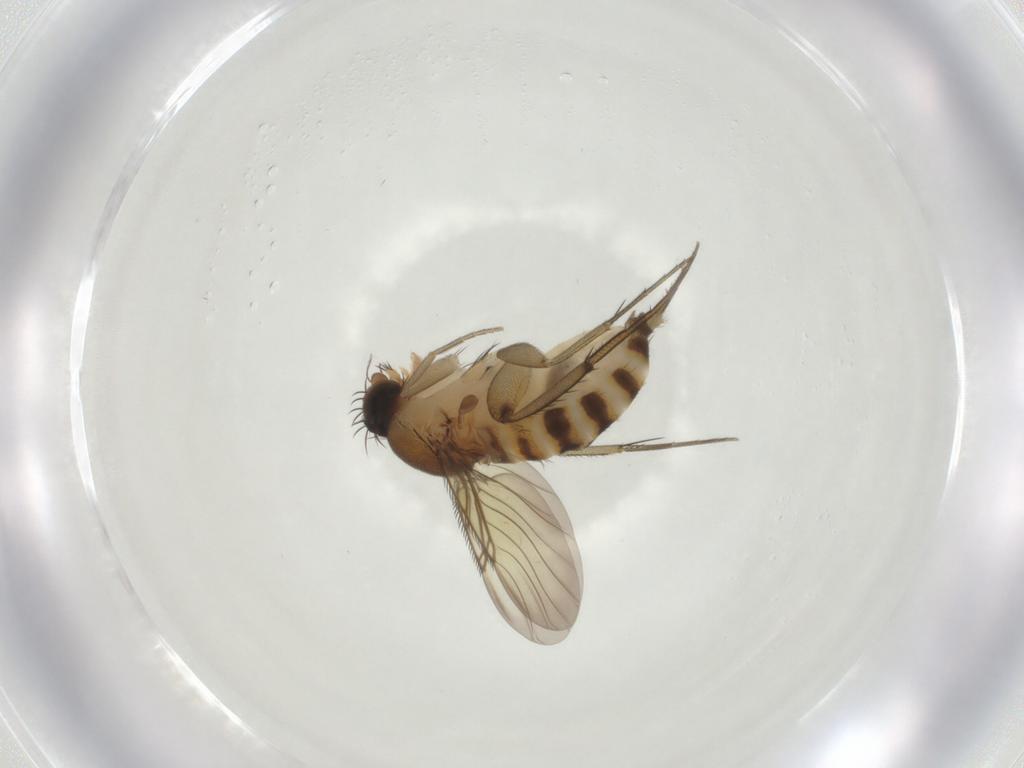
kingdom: Animalia
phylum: Arthropoda
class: Insecta
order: Diptera
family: Phoridae
